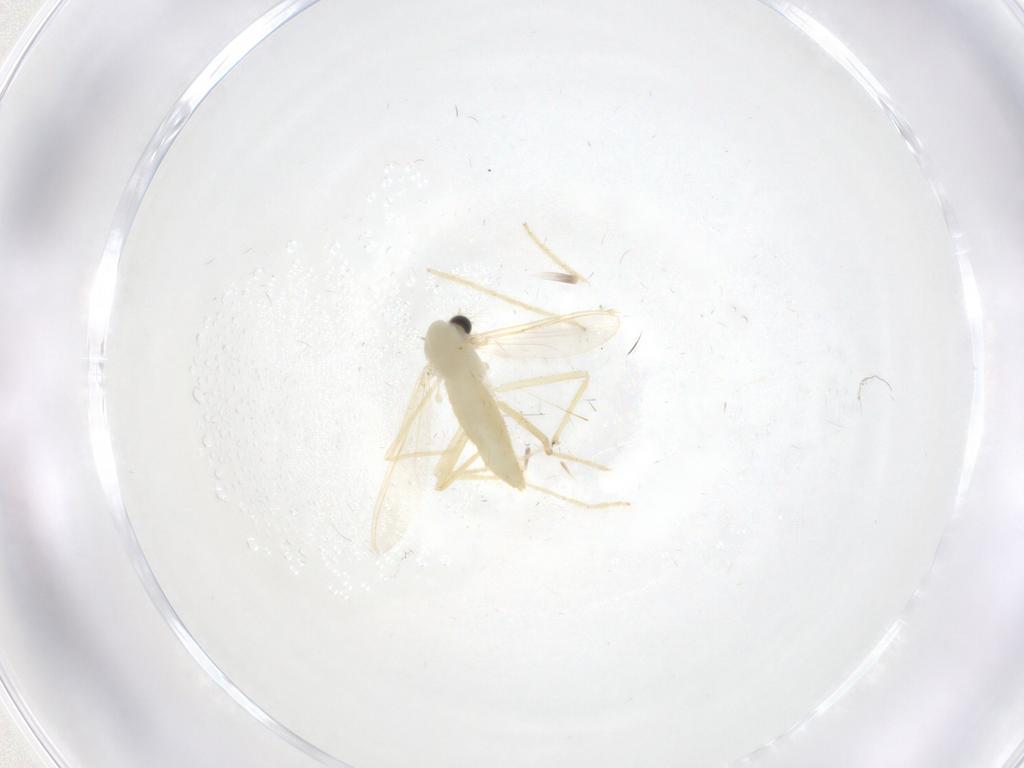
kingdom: Animalia
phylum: Arthropoda
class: Insecta
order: Diptera
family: Chironomidae
